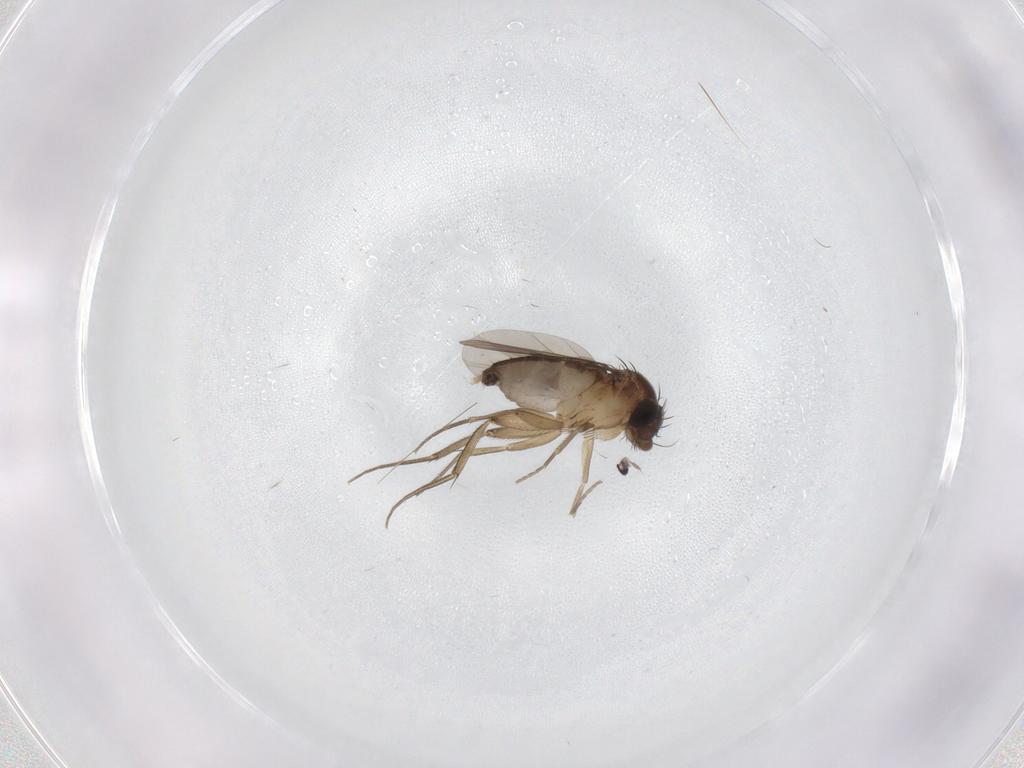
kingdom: Animalia
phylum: Arthropoda
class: Insecta
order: Diptera
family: Phoridae
